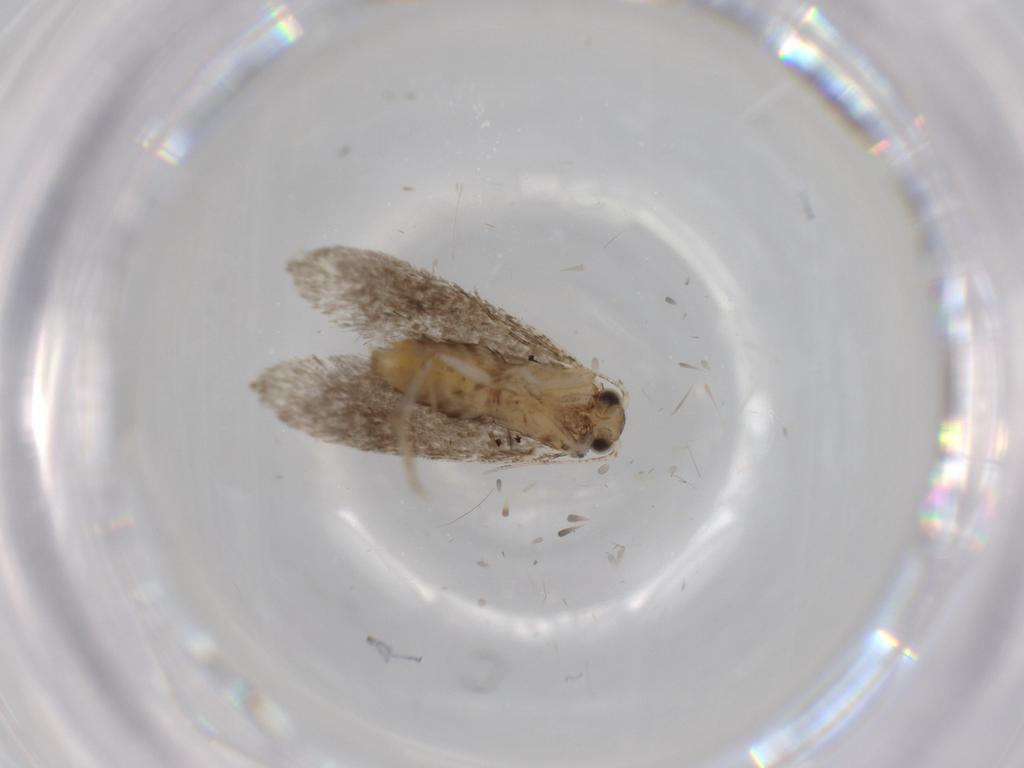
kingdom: Animalia
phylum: Arthropoda
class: Insecta
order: Lepidoptera
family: Tineidae
